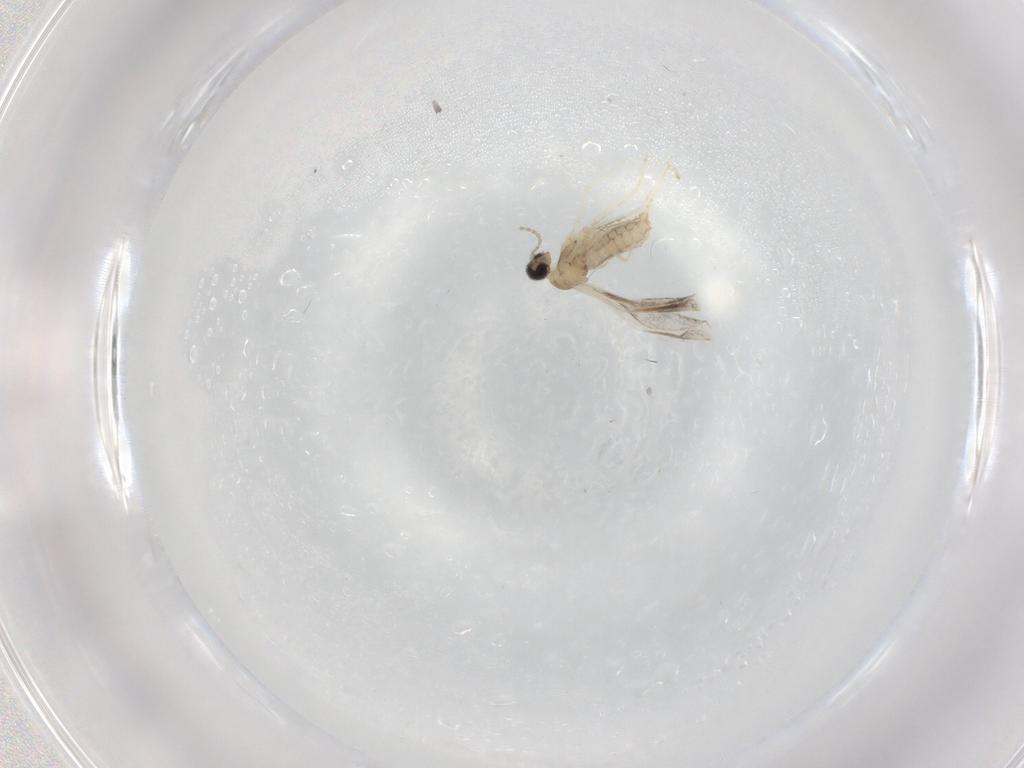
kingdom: Animalia
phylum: Arthropoda
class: Insecta
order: Diptera
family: Cecidomyiidae
